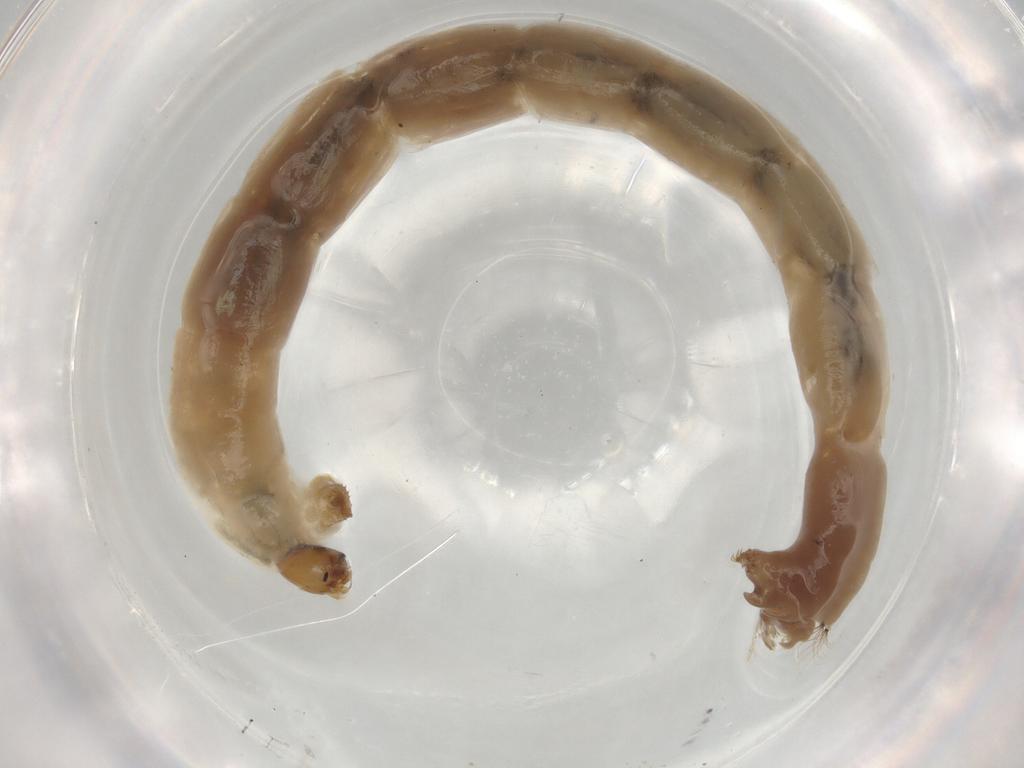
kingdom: Animalia
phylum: Arthropoda
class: Insecta
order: Diptera
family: Chironomidae
